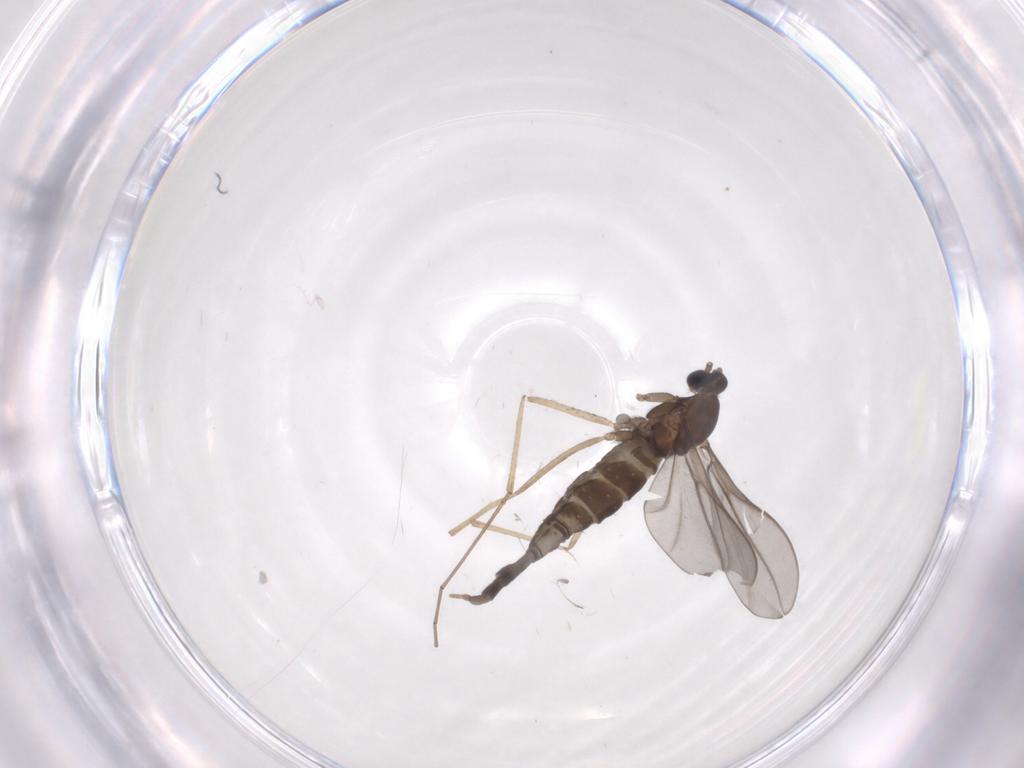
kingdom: Animalia
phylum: Arthropoda
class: Insecta
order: Diptera
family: Cecidomyiidae
